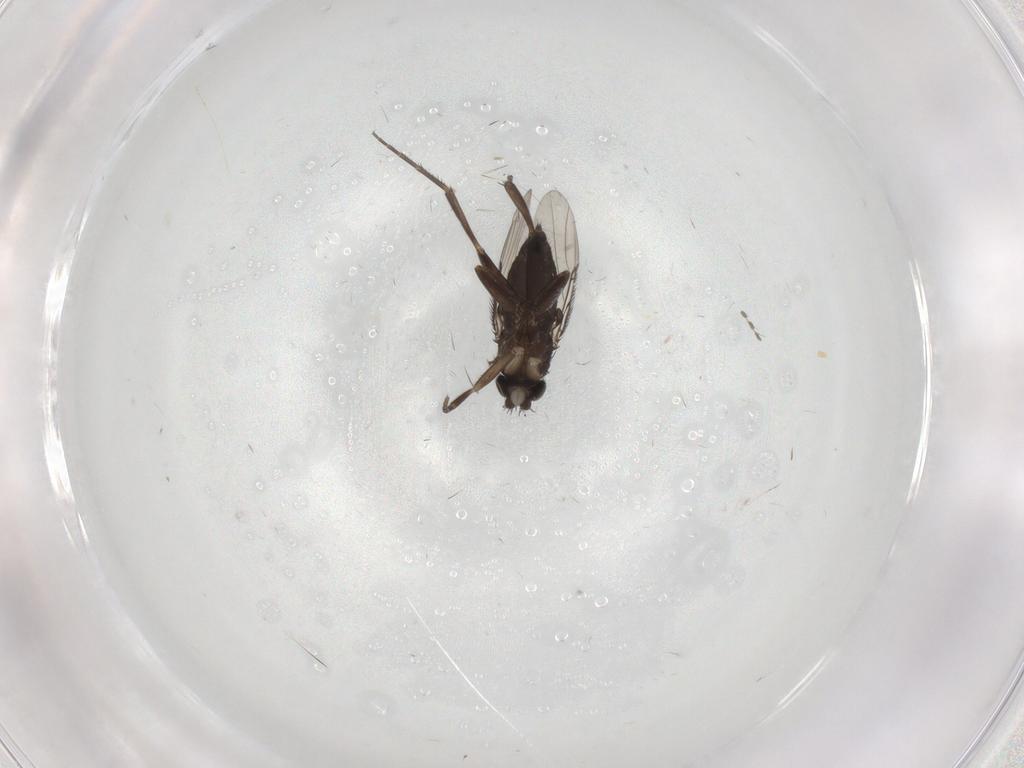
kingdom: Animalia
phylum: Arthropoda
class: Insecta
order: Diptera
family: Phoridae
